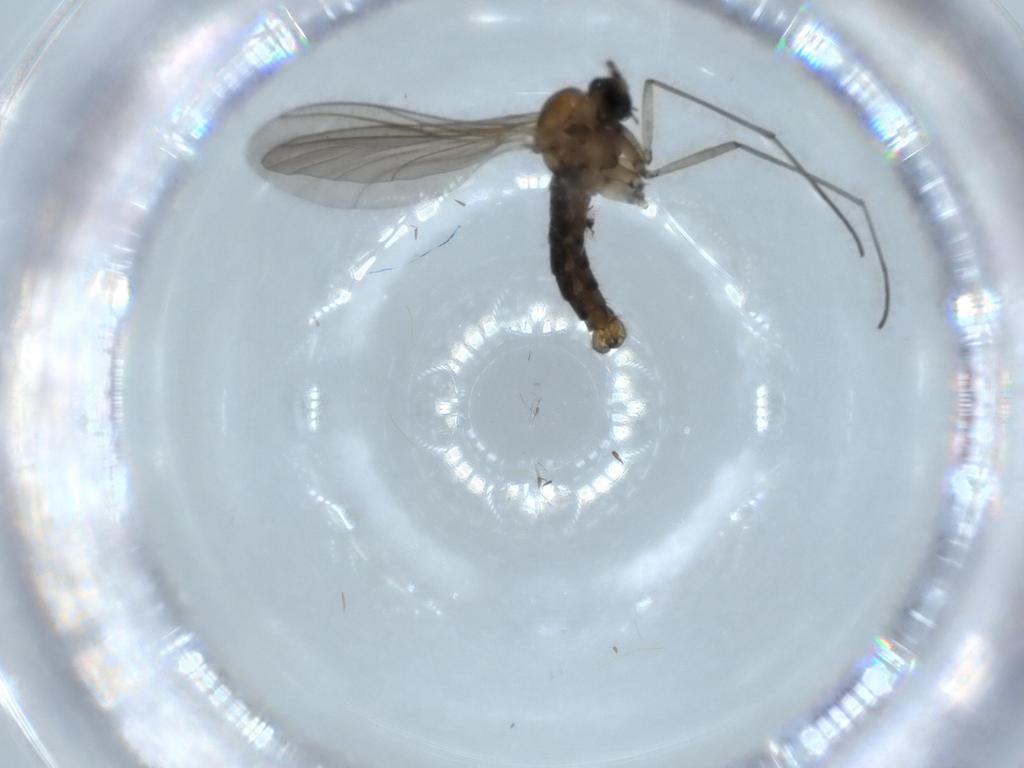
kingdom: Animalia
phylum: Arthropoda
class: Insecta
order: Diptera
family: Sciaridae
